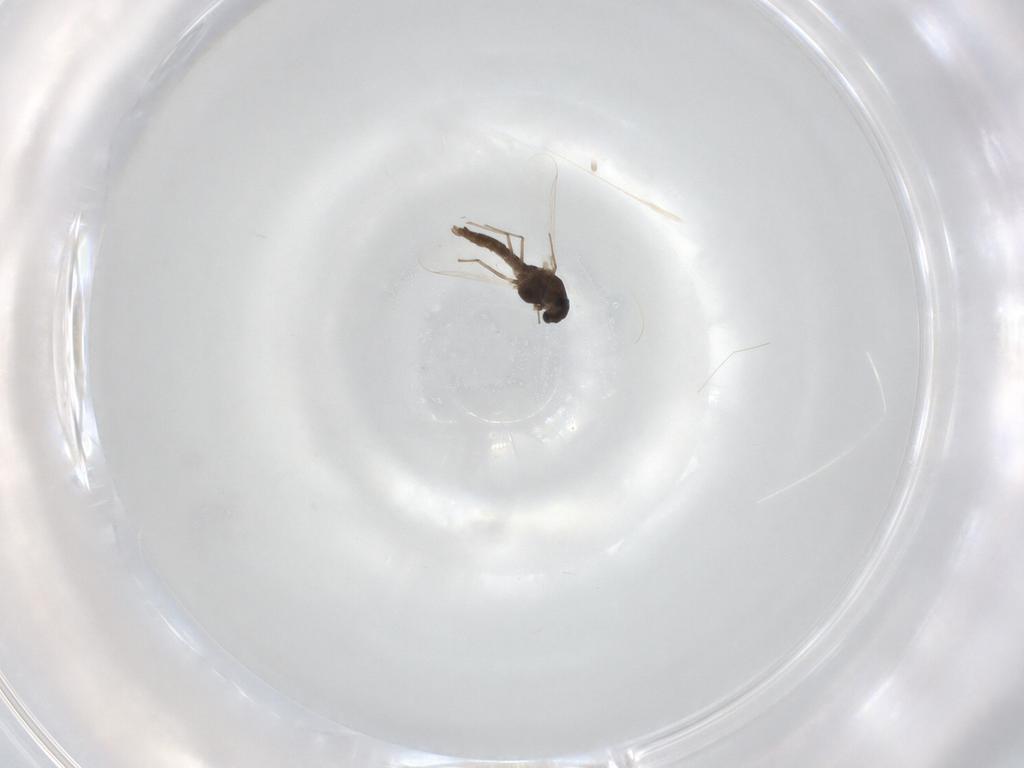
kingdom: Animalia
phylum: Arthropoda
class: Insecta
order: Diptera
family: Chironomidae
